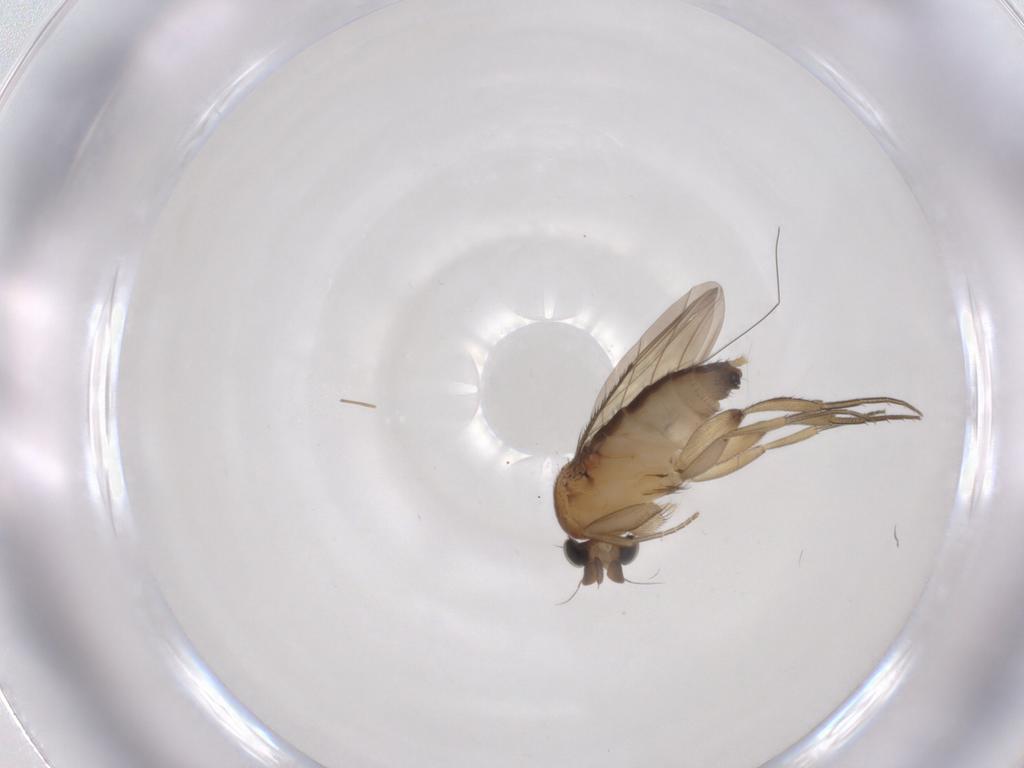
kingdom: Animalia
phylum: Arthropoda
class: Insecta
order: Diptera
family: Phoridae
